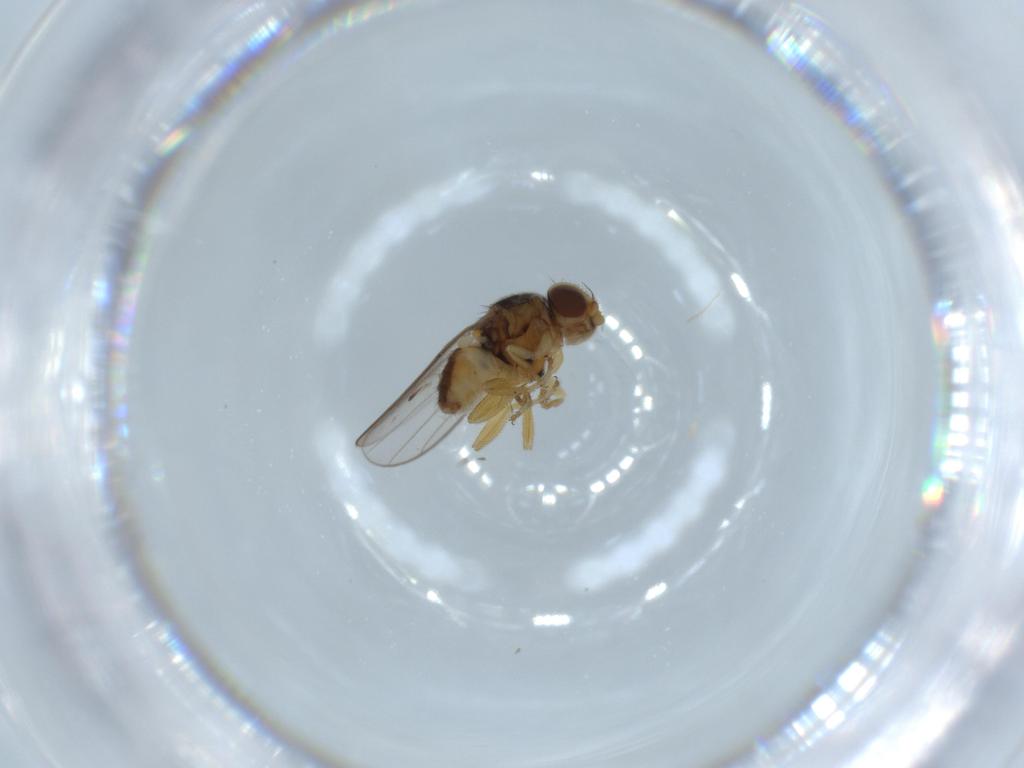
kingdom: Animalia
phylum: Arthropoda
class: Insecta
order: Diptera
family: Chloropidae
